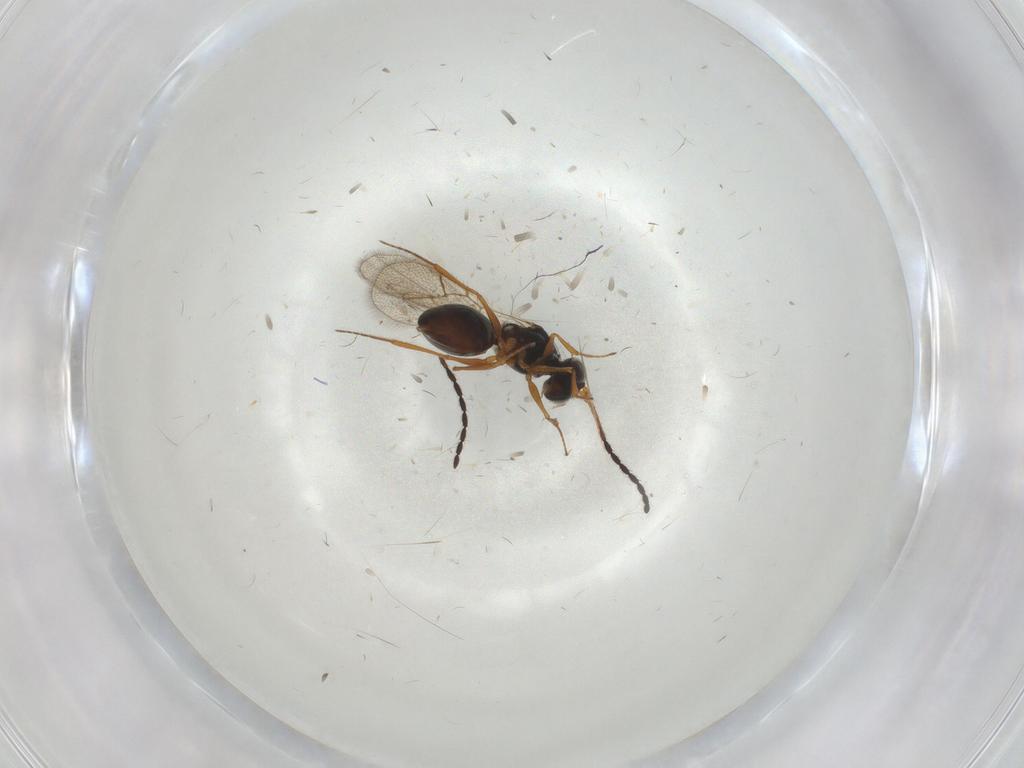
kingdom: Animalia
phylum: Arthropoda
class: Insecta
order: Hymenoptera
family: Figitidae
